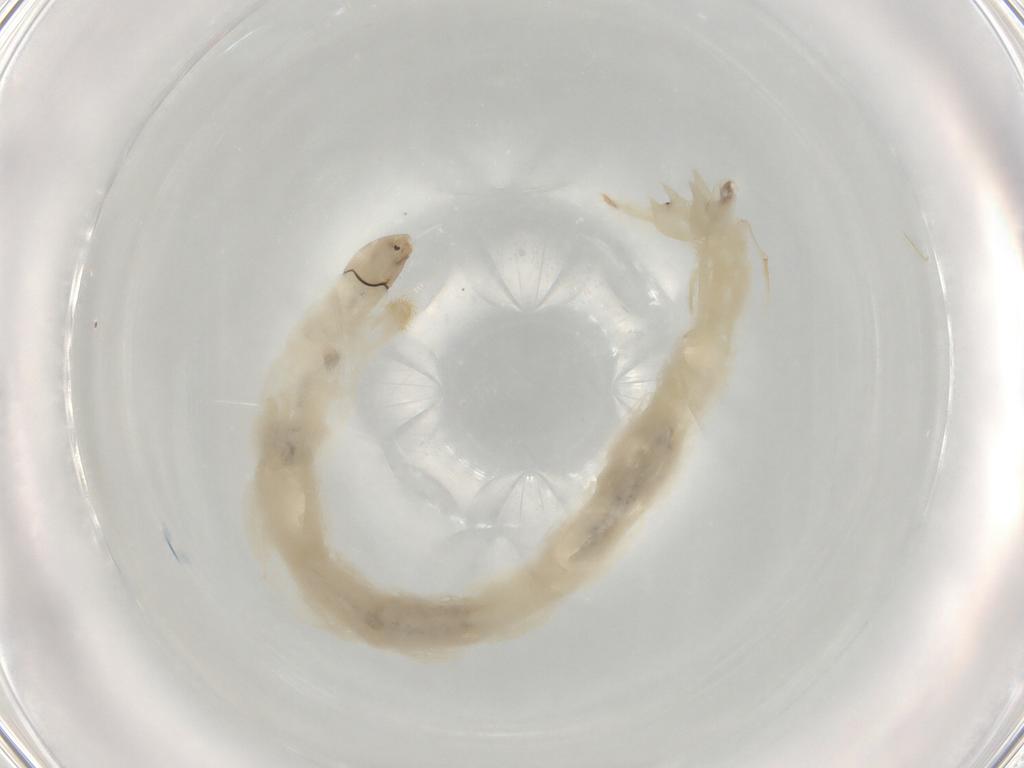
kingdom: Animalia
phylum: Arthropoda
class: Insecta
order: Diptera
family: Chironomidae
